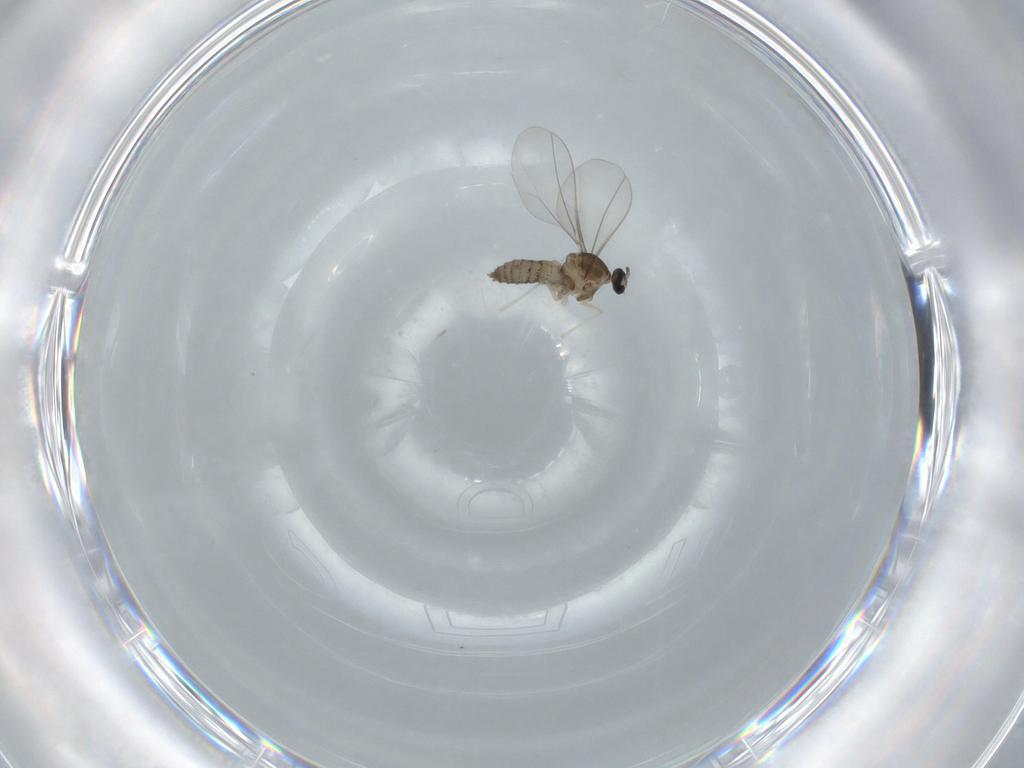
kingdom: Animalia
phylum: Arthropoda
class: Insecta
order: Diptera
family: Cecidomyiidae
